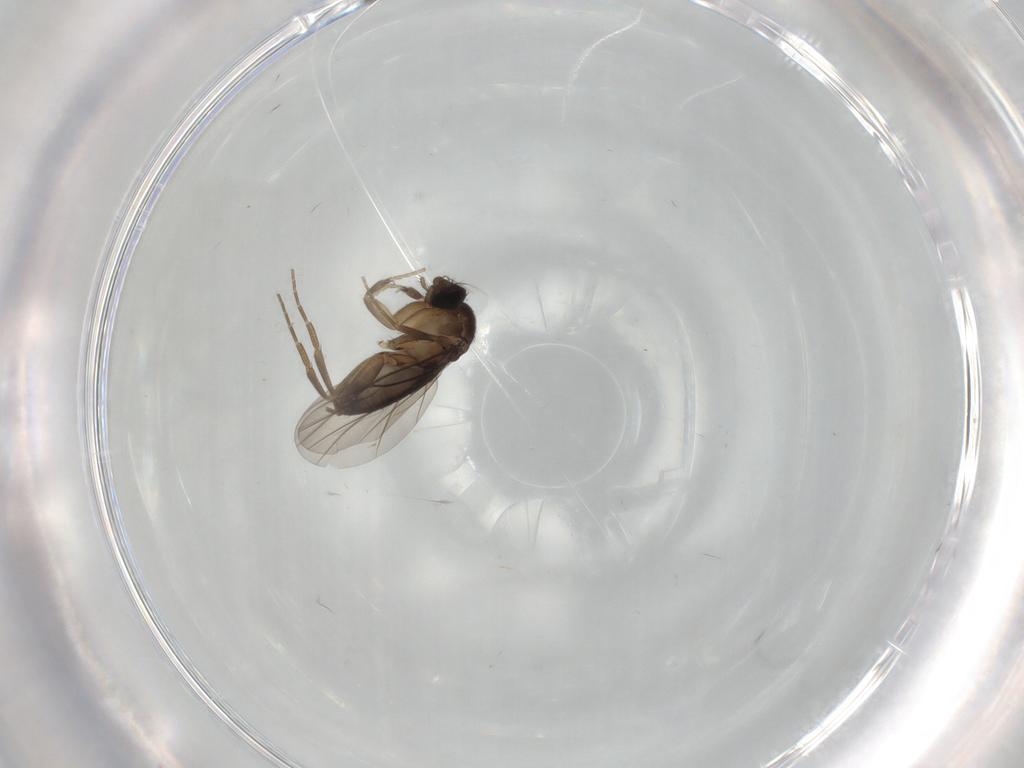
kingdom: Animalia
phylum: Arthropoda
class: Insecta
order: Diptera
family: Phoridae
